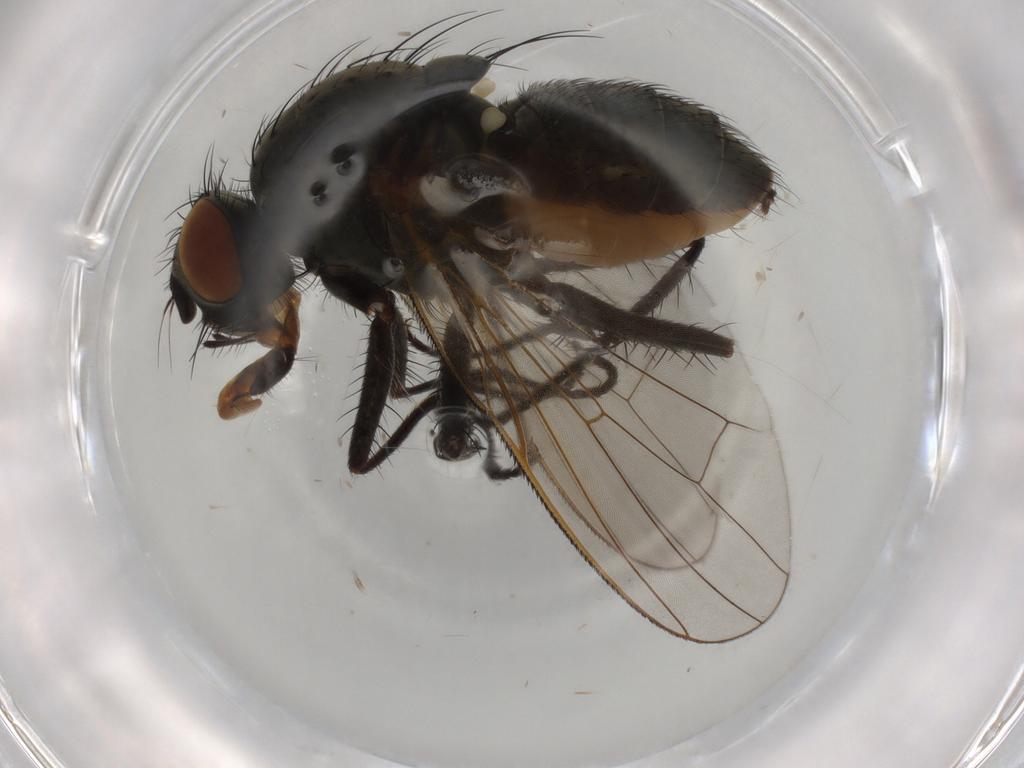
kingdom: Animalia
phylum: Arthropoda
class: Insecta
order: Diptera
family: Anthomyiidae
